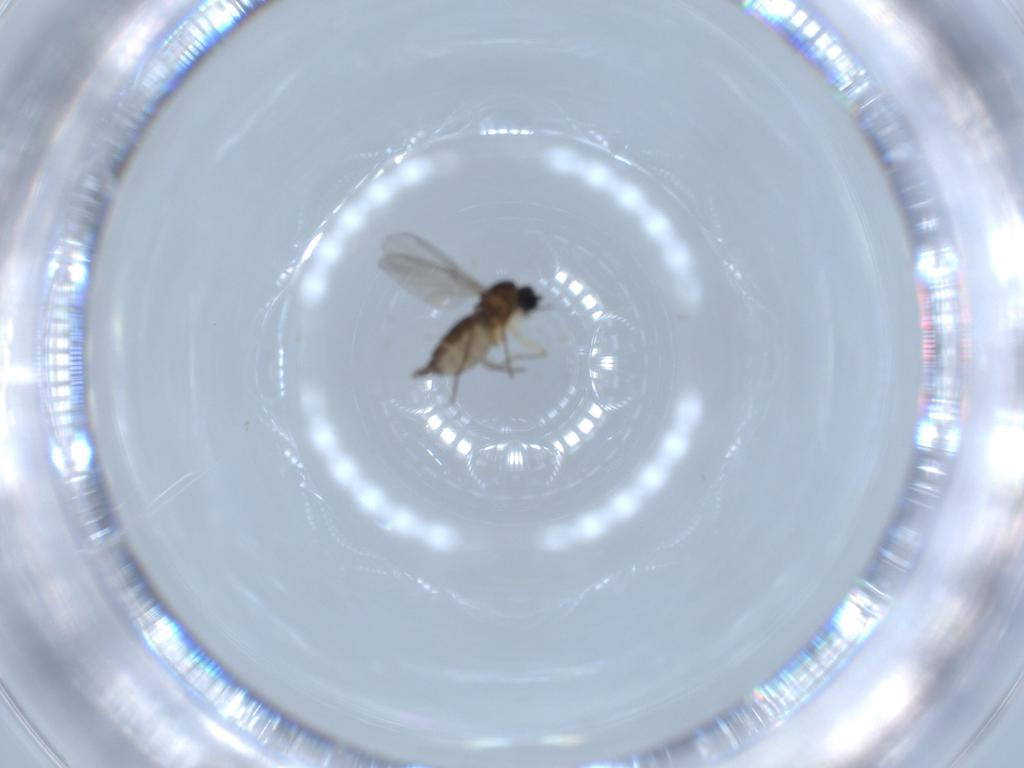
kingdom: Animalia
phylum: Arthropoda
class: Insecta
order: Diptera
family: Sciaridae
